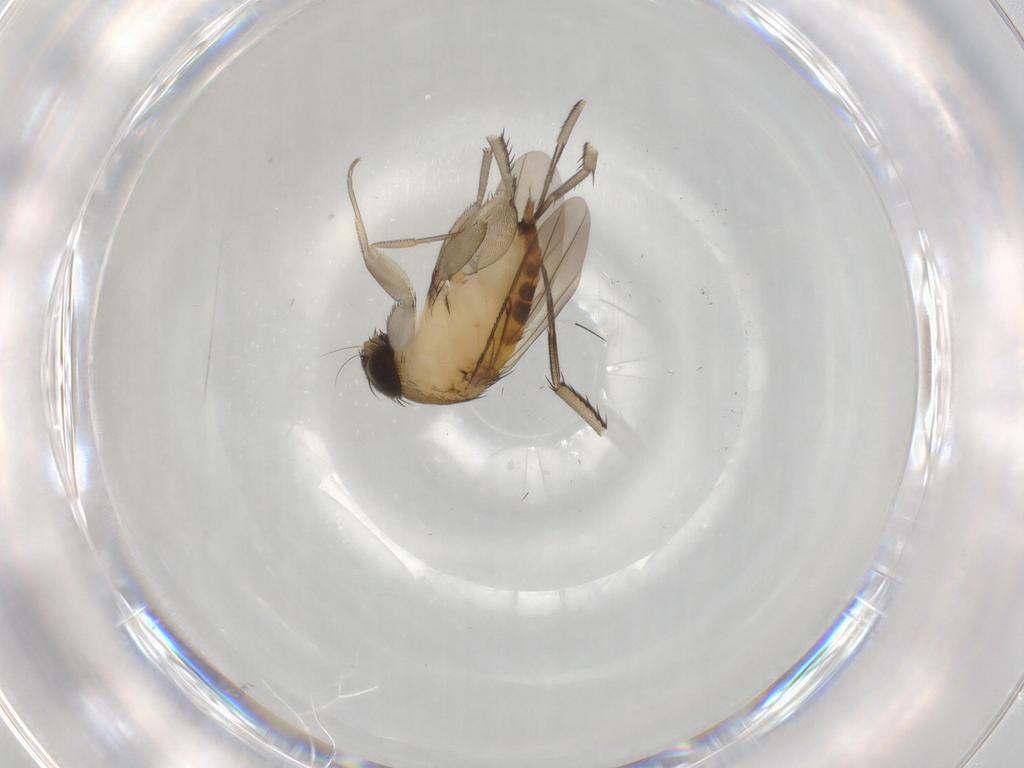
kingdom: Animalia
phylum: Arthropoda
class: Insecta
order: Diptera
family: Phoridae
